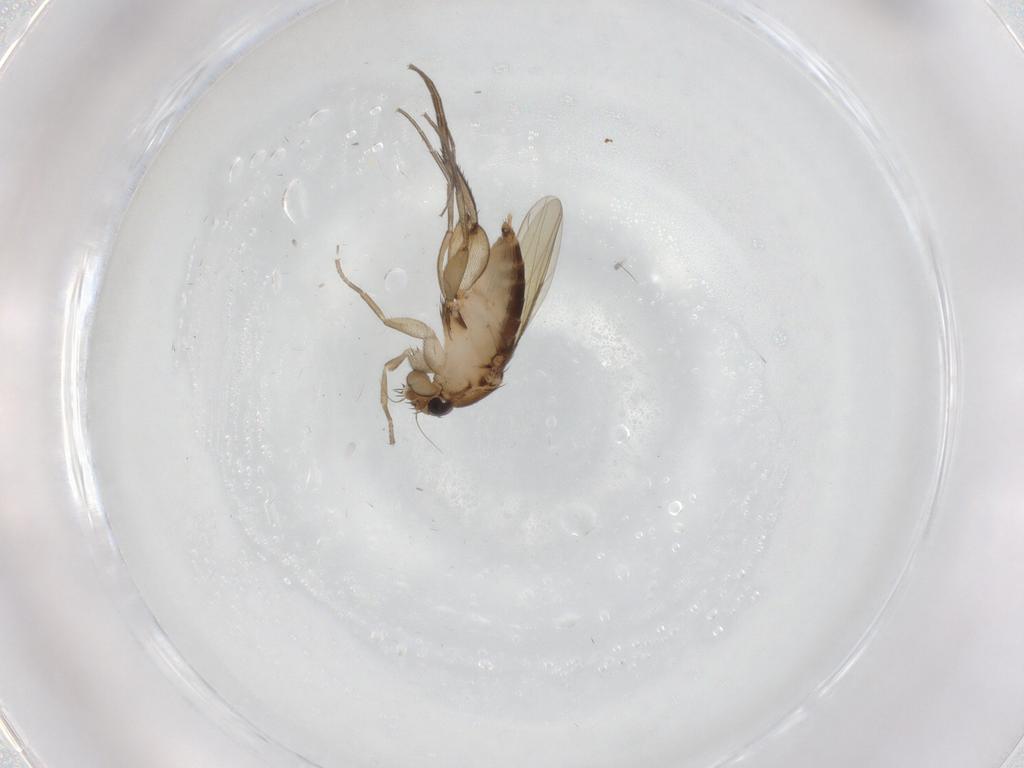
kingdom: Animalia
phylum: Arthropoda
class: Insecta
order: Diptera
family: Phoridae
